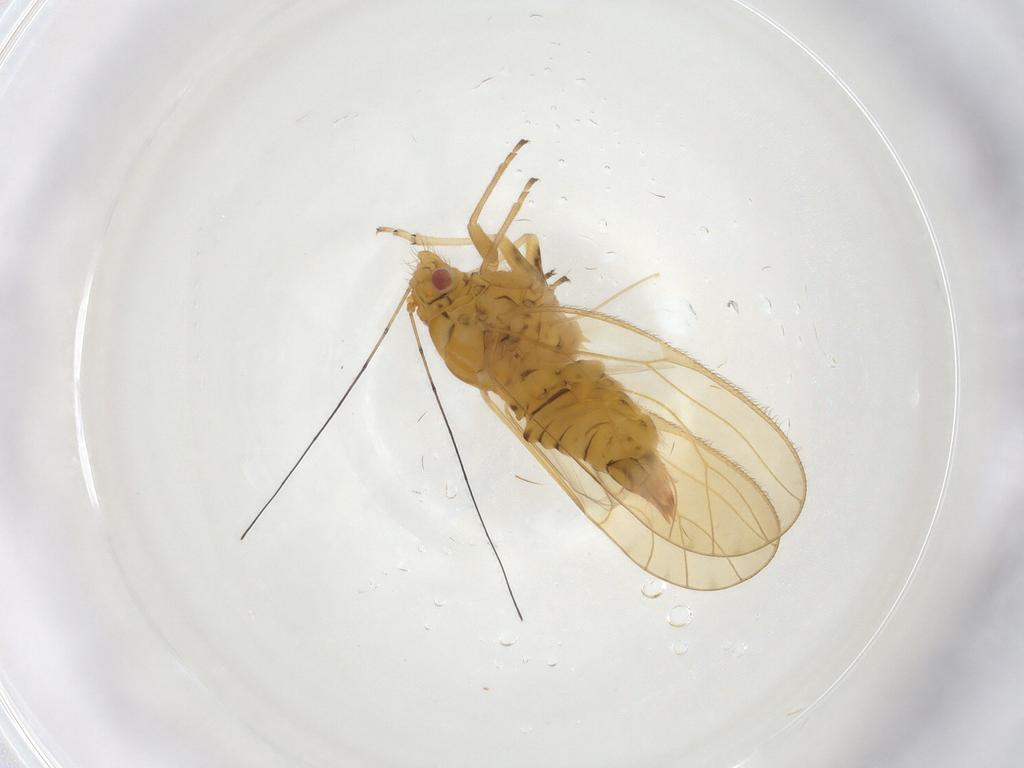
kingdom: Animalia
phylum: Arthropoda
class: Insecta
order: Hemiptera
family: Psyllidae
